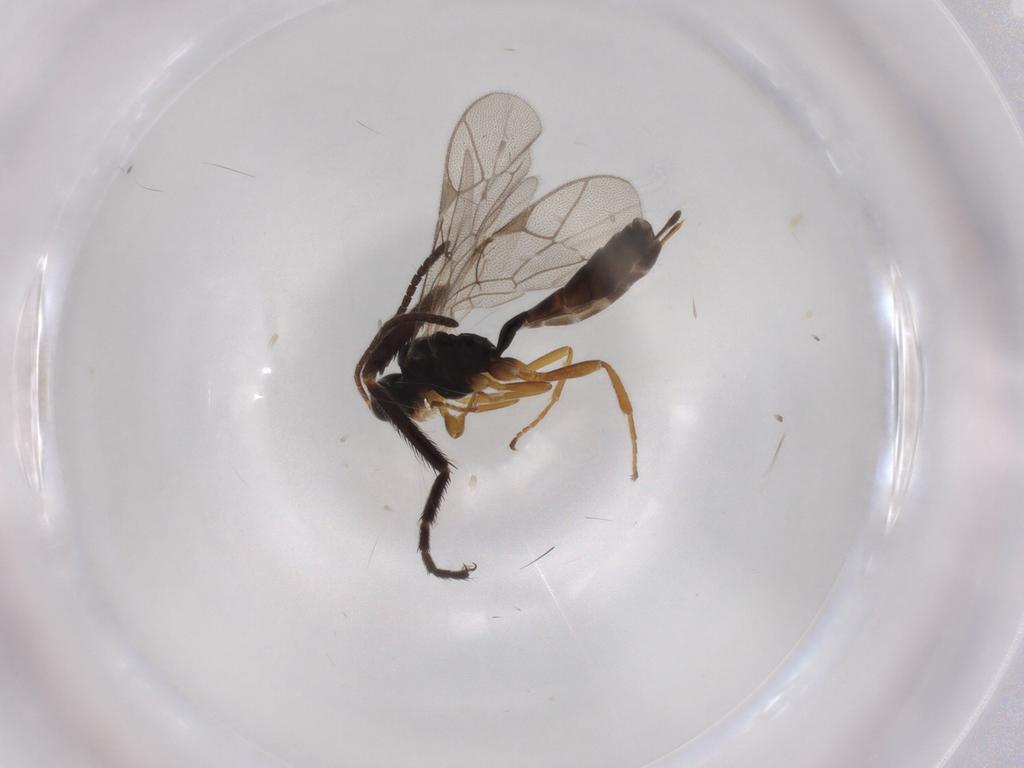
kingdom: Animalia
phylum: Arthropoda
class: Insecta
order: Hymenoptera
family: Ichneumonidae
